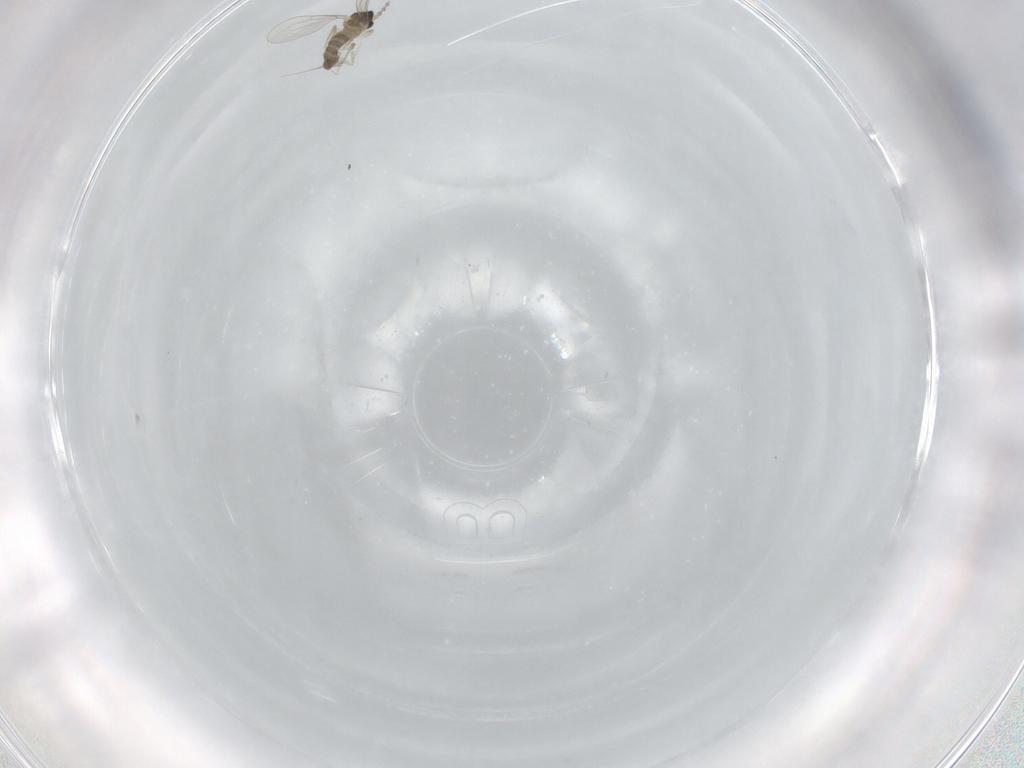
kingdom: Animalia
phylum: Arthropoda
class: Insecta
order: Diptera
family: Cecidomyiidae
